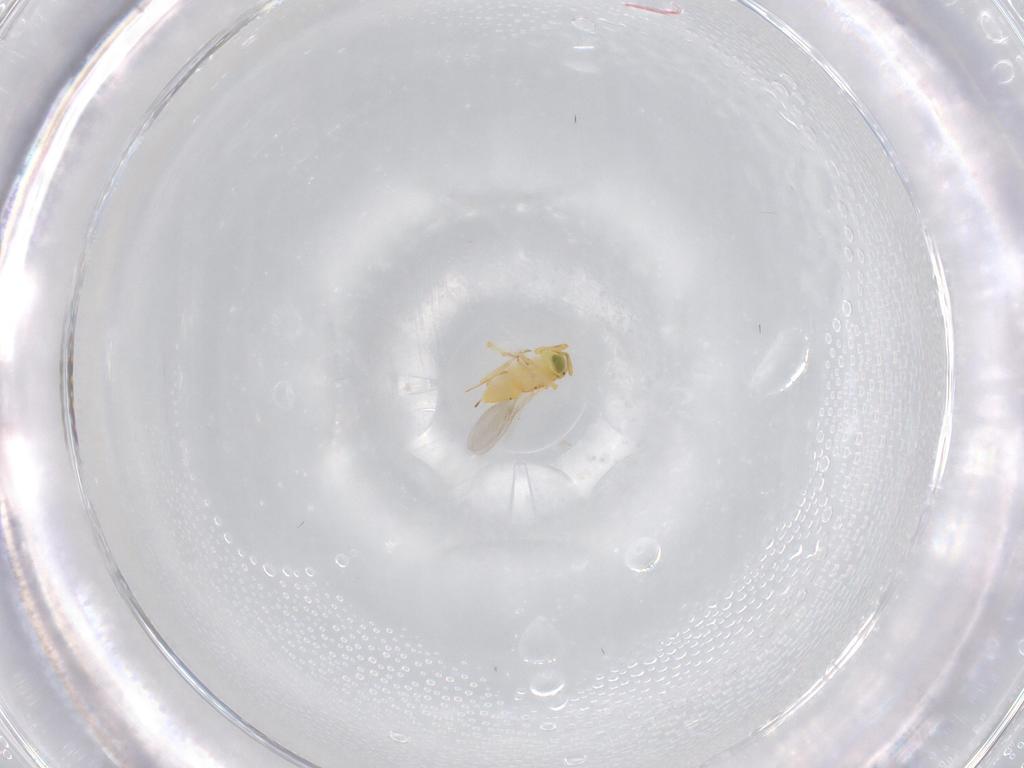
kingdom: Animalia
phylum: Arthropoda
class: Insecta
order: Hymenoptera
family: Encyrtidae
